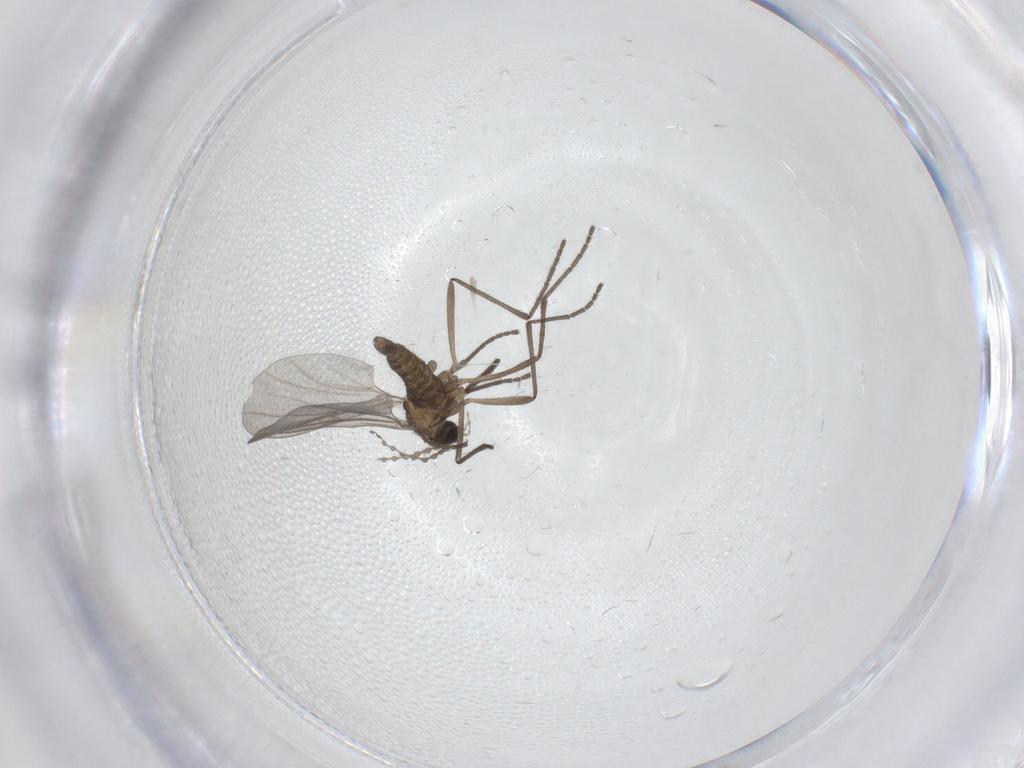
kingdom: Animalia
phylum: Arthropoda
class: Insecta
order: Diptera
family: Cecidomyiidae
